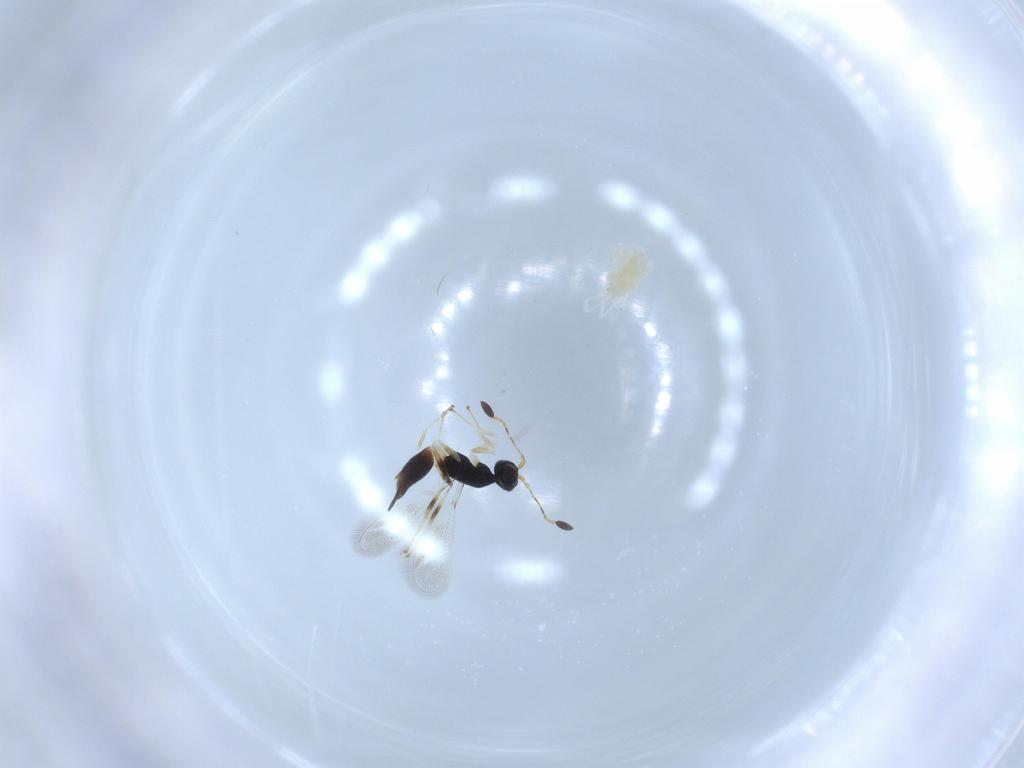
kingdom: Animalia
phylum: Arthropoda
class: Arachnida
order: Trombidiformes
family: Eupodidae
